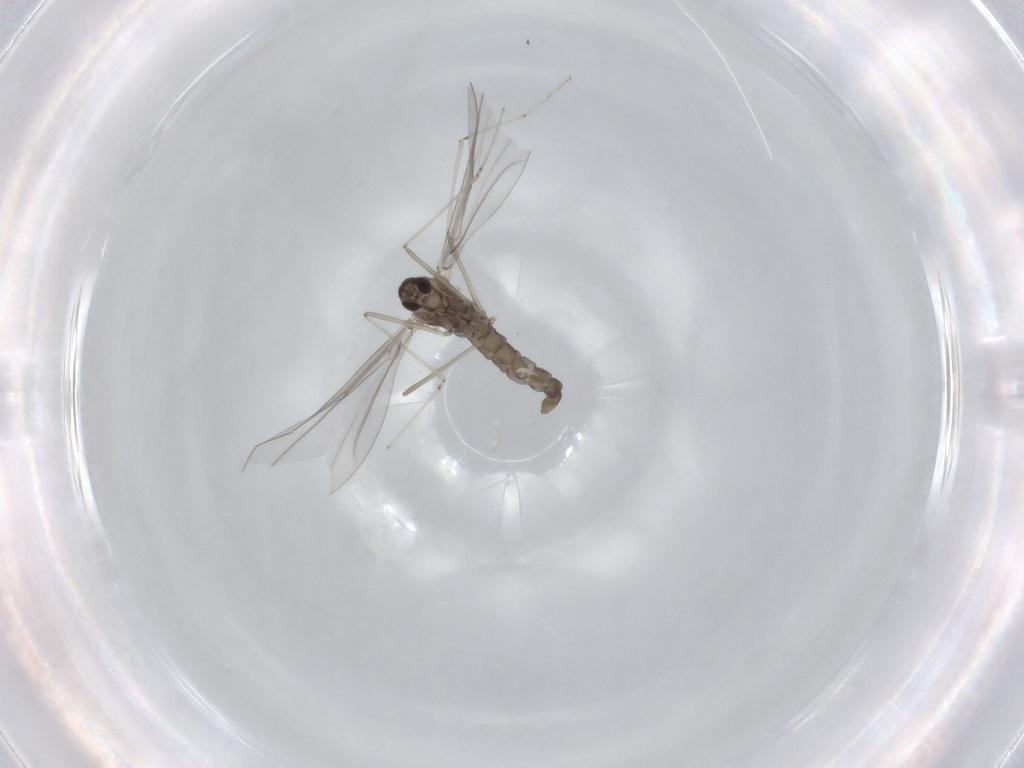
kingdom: Animalia
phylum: Arthropoda
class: Insecta
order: Diptera
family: Cecidomyiidae
